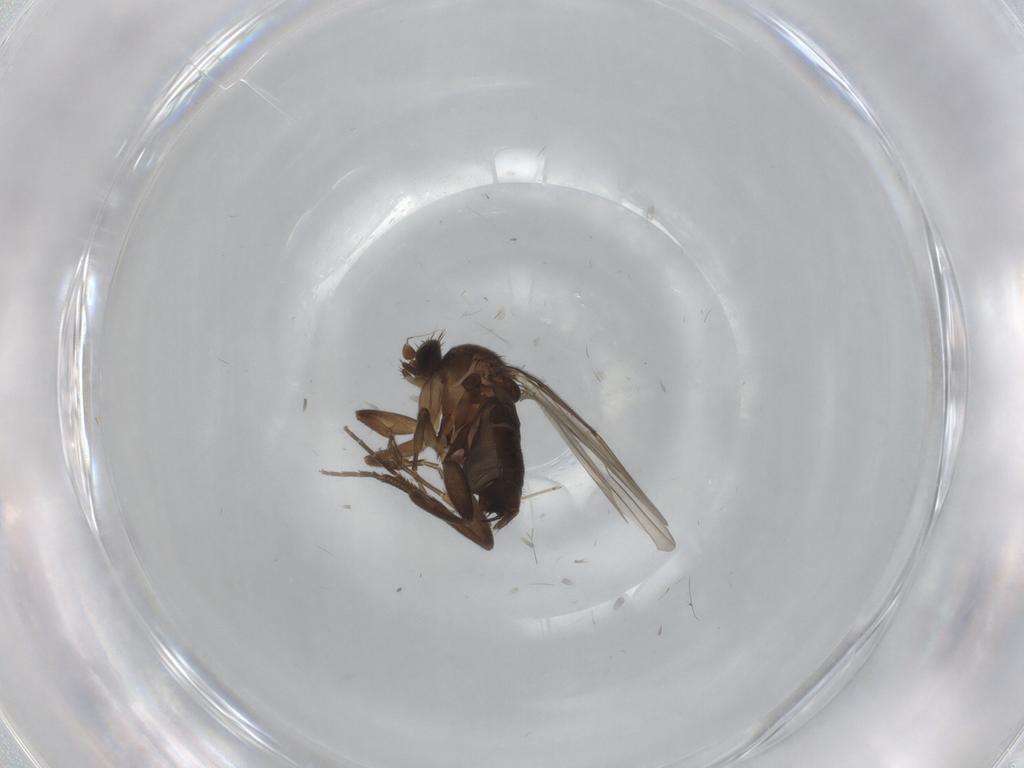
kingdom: Animalia
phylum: Arthropoda
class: Insecta
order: Diptera
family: Cecidomyiidae
